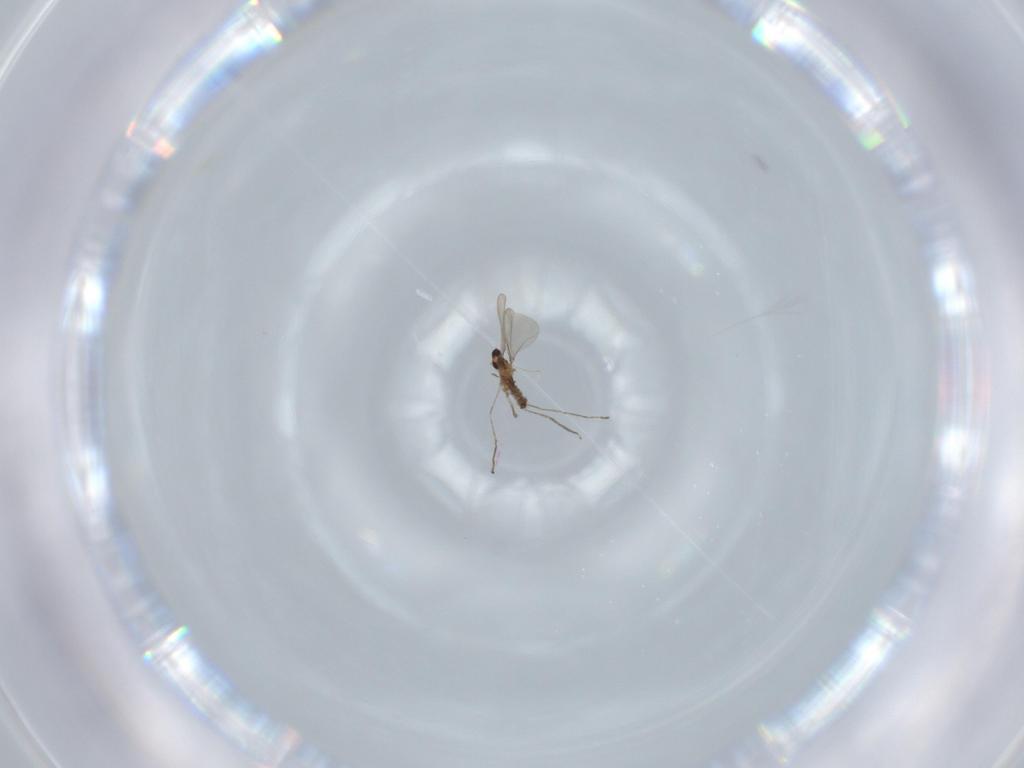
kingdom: Animalia
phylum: Arthropoda
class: Insecta
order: Diptera
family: Cecidomyiidae
